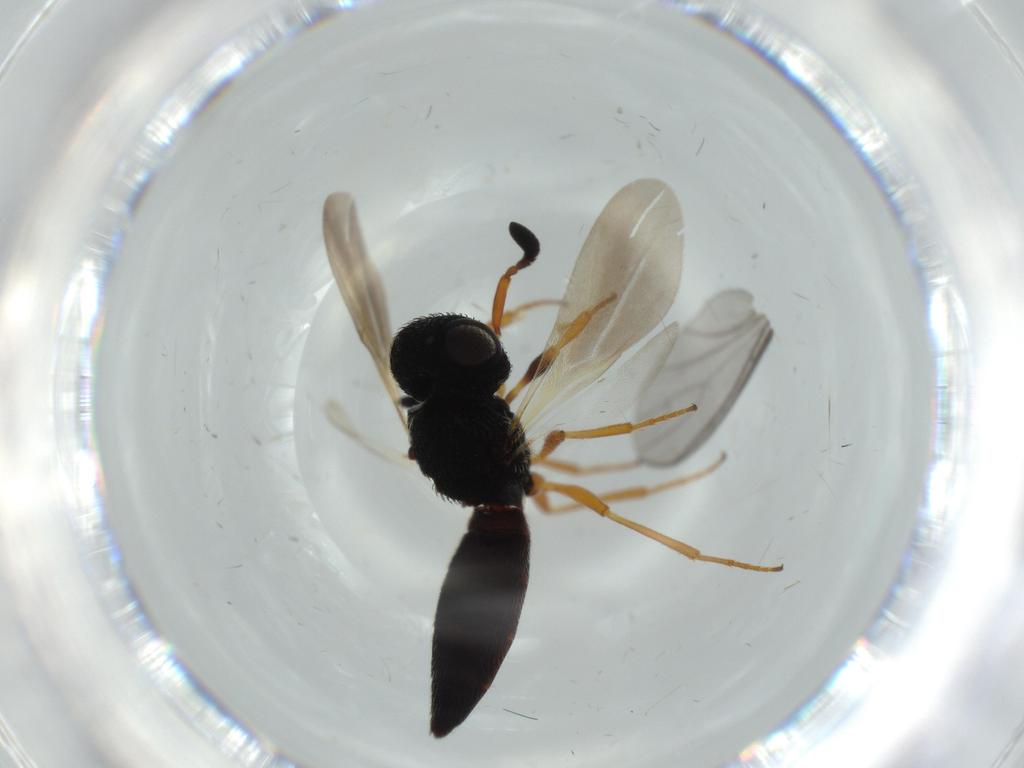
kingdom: Animalia
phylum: Arthropoda
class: Insecta
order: Hymenoptera
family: Scelionidae
